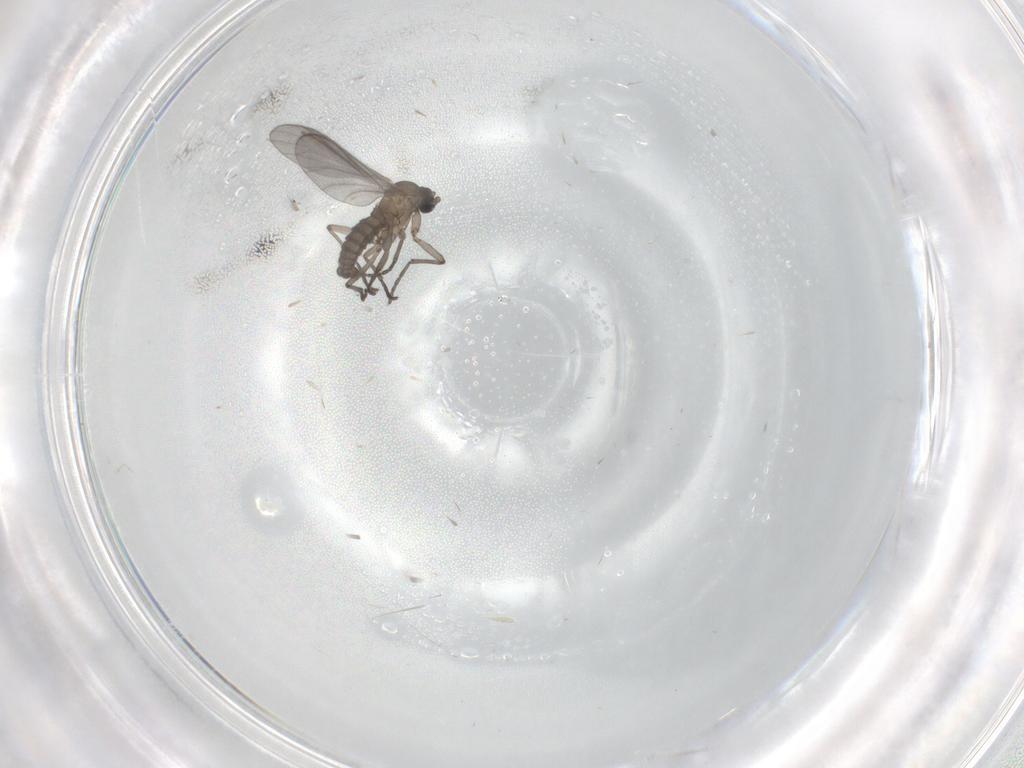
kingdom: Animalia
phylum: Arthropoda
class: Insecta
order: Diptera
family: Sciaridae
